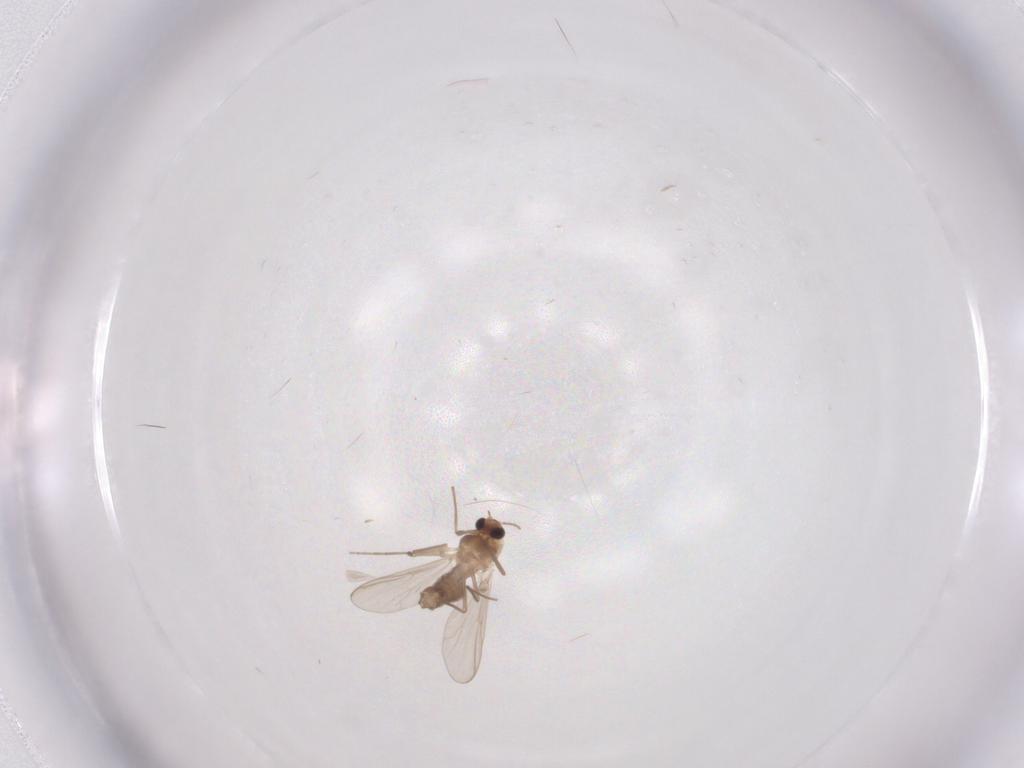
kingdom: Animalia
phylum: Arthropoda
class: Insecta
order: Diptera
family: Chironomidae
